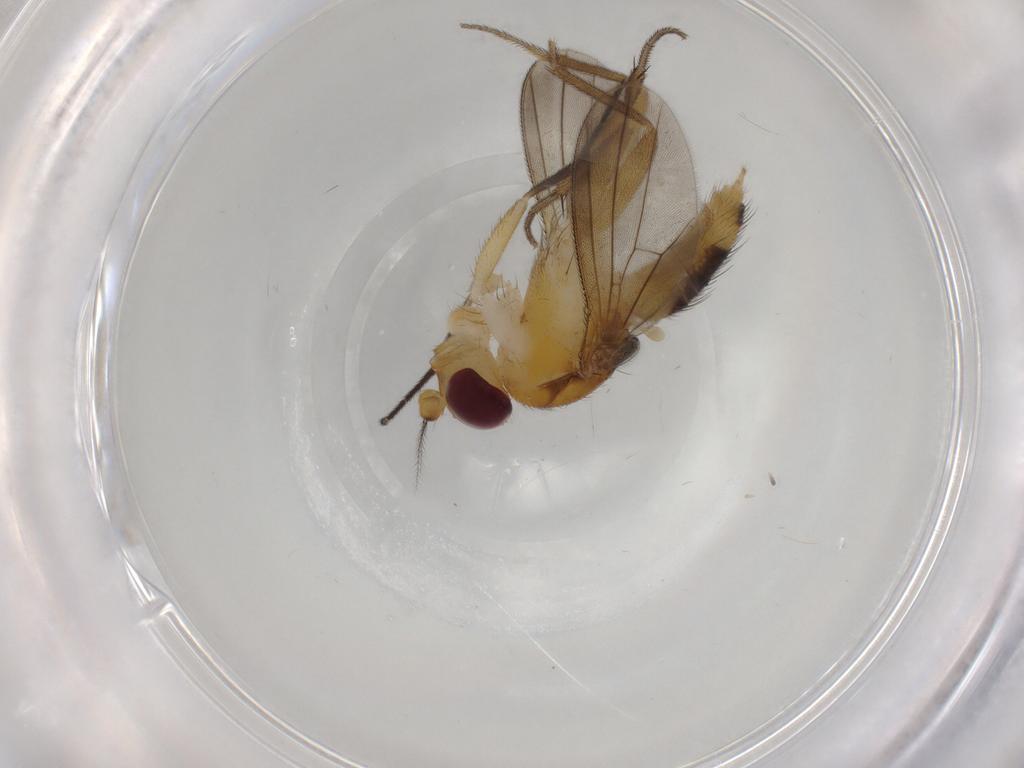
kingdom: Animalia
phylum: Arthropoda
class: Insecta
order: Diptera
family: Clusiidae
